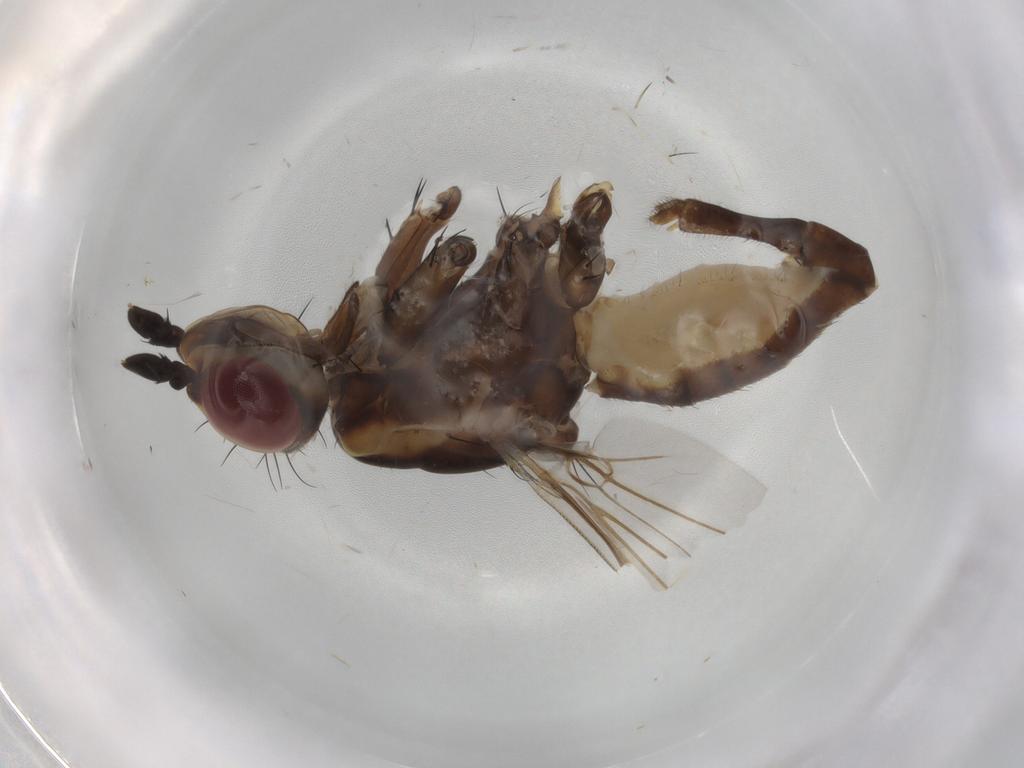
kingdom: Animalia
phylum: Arthropoda
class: Insecta
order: Diptera
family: Neriidae
